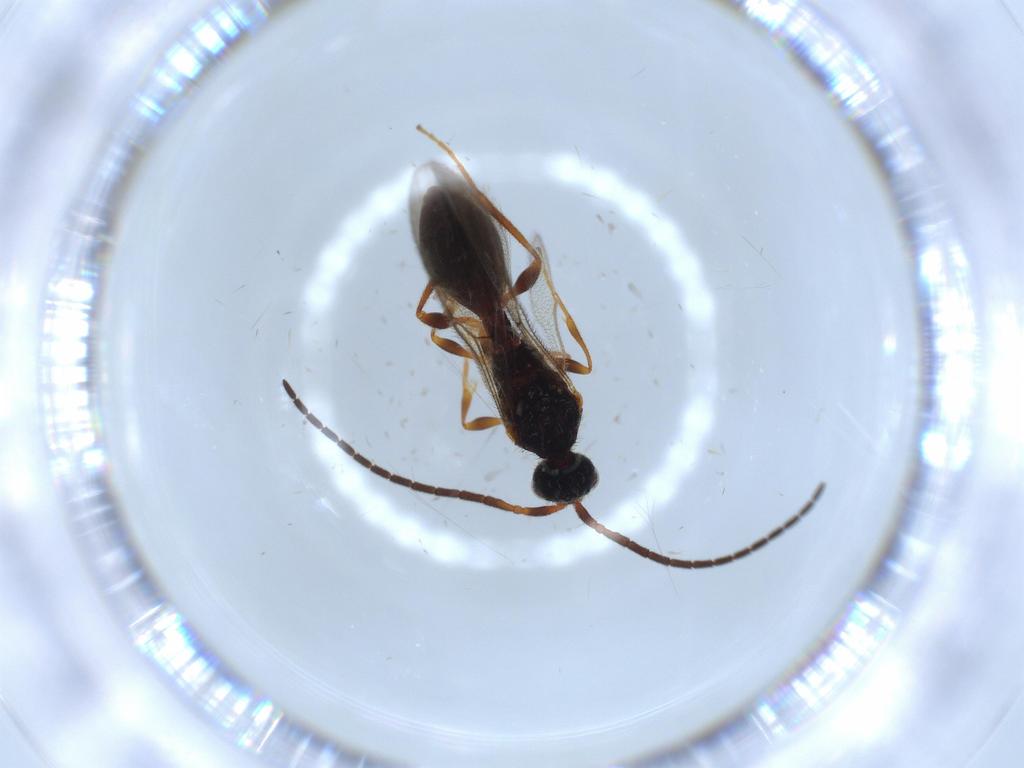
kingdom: Animalia
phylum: Arthropoda
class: Insecta
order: Hymenoptera
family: Diapriidae
